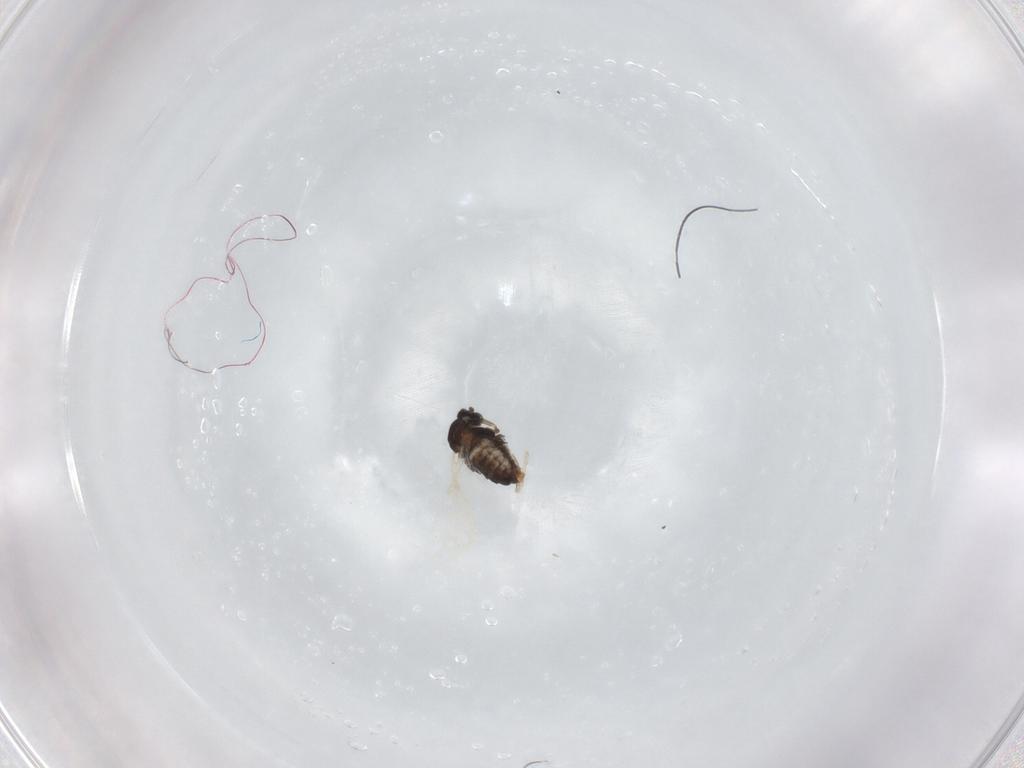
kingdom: Animalia
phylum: Arthropoda
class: Insecta
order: Diptera
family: Cecidomyiidae
